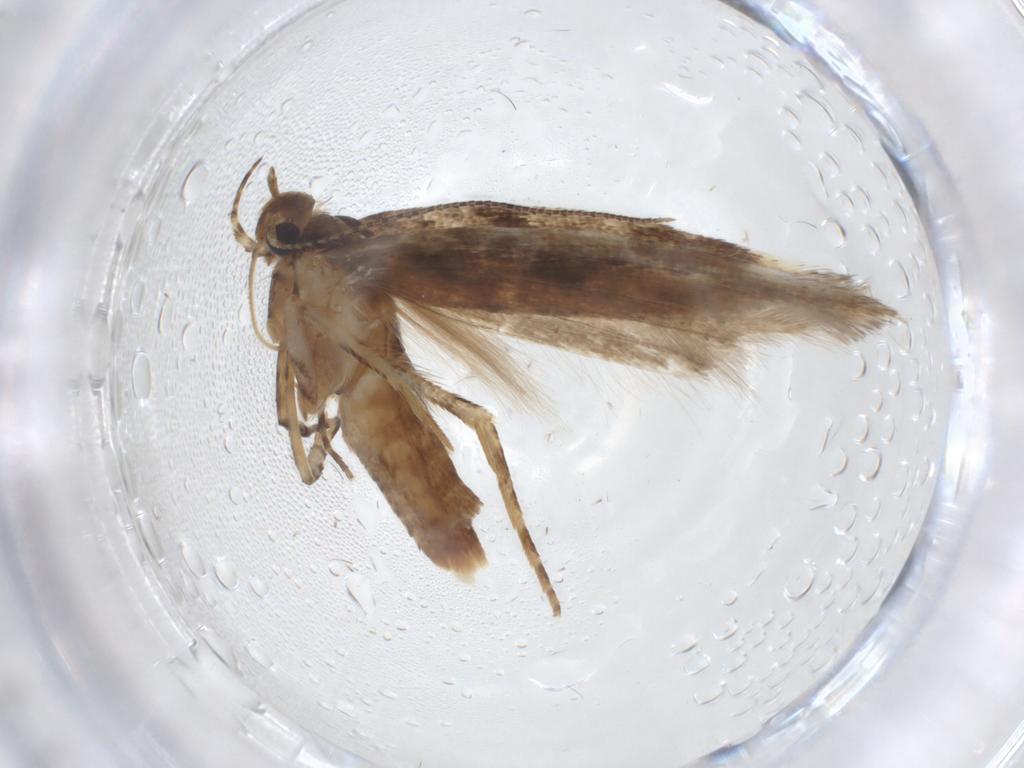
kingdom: Animalia
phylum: Arthropoda
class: Insecta
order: Lepidoptera
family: Gelechiidae
